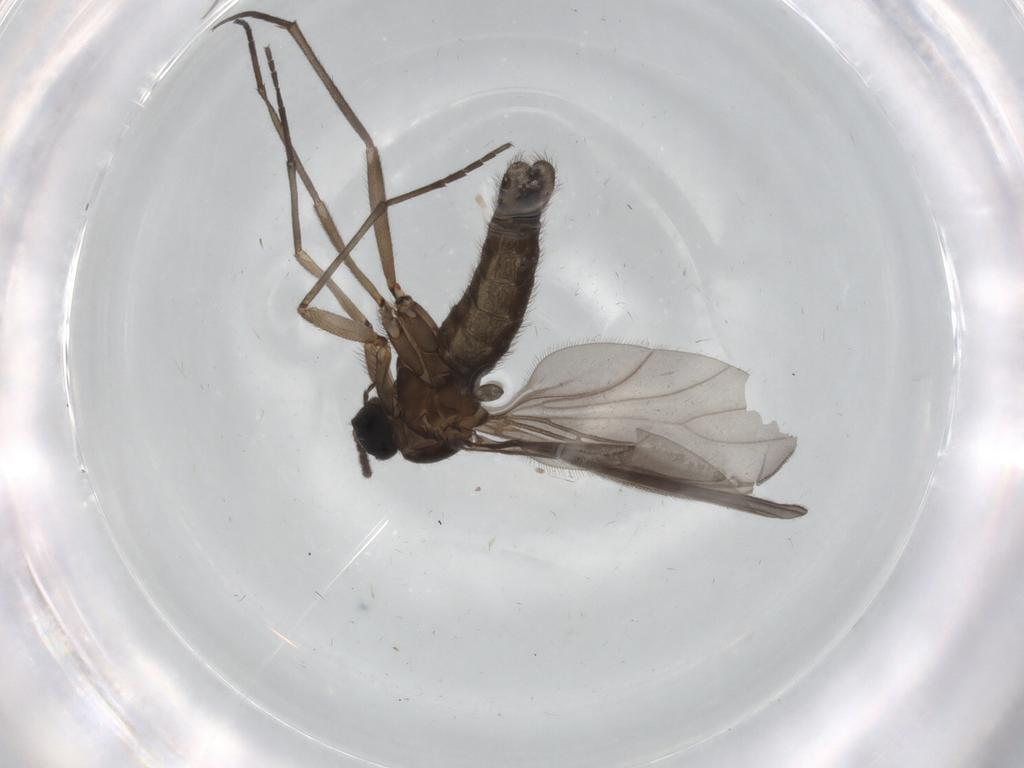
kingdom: Animalia
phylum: Arthropoda
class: Insecta
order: Diptera
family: Sciaridae
